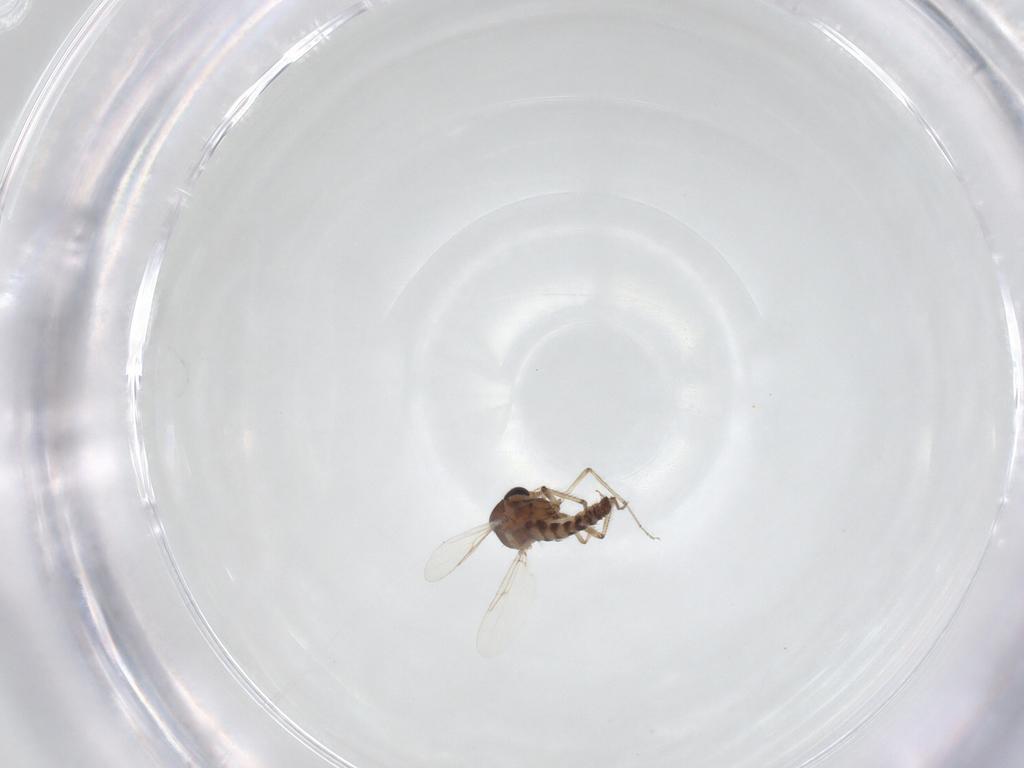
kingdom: Animalia
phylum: Arthropoda
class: Insecta
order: Diptera
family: Ceratopogonidae
